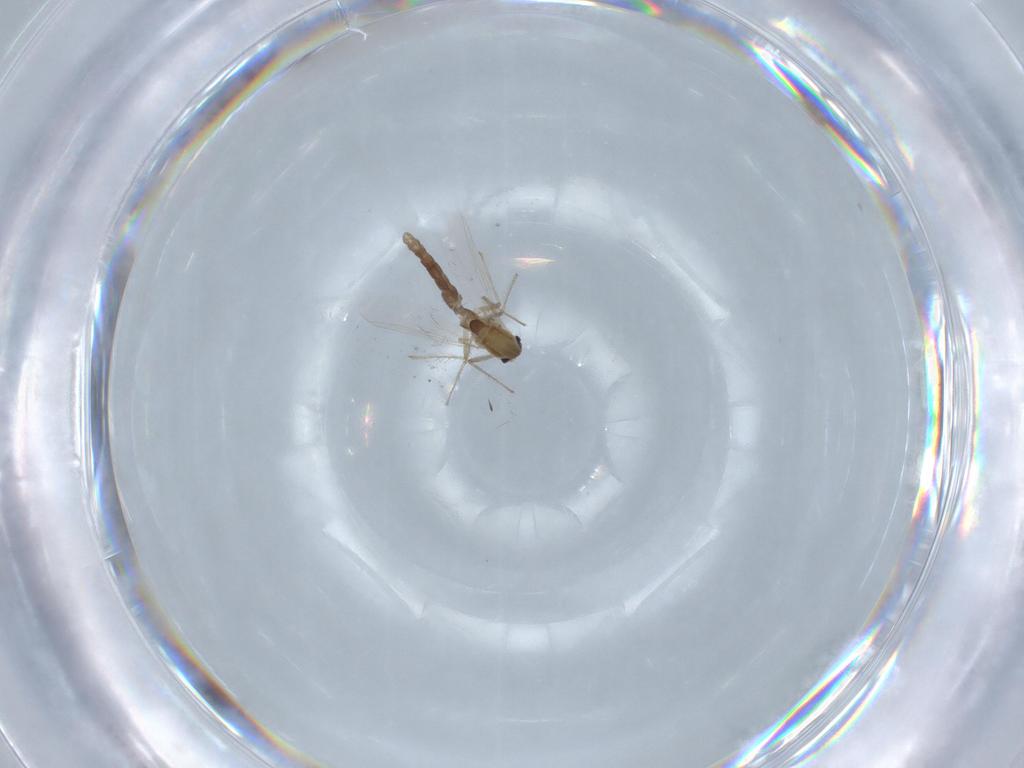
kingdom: Animalia
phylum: Arthropoda
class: Insecta
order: Diptera
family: Chironomidae
